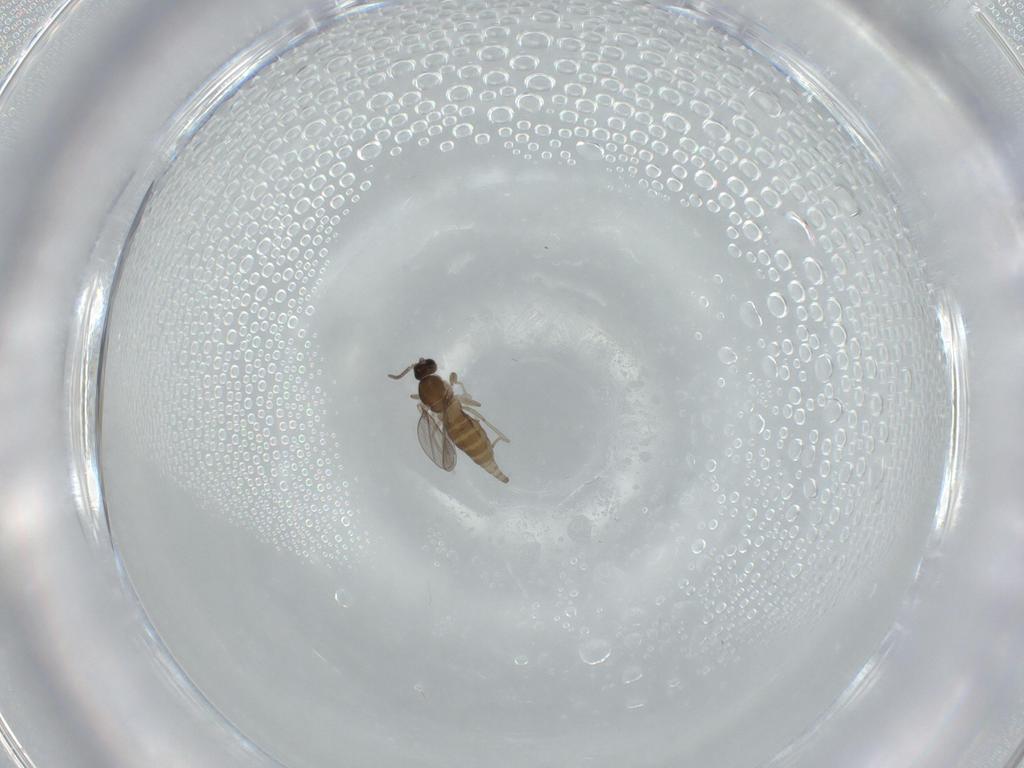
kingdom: Animalia
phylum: Arthropoda
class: Insecta
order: Diptera
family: Cecidomyiidae
